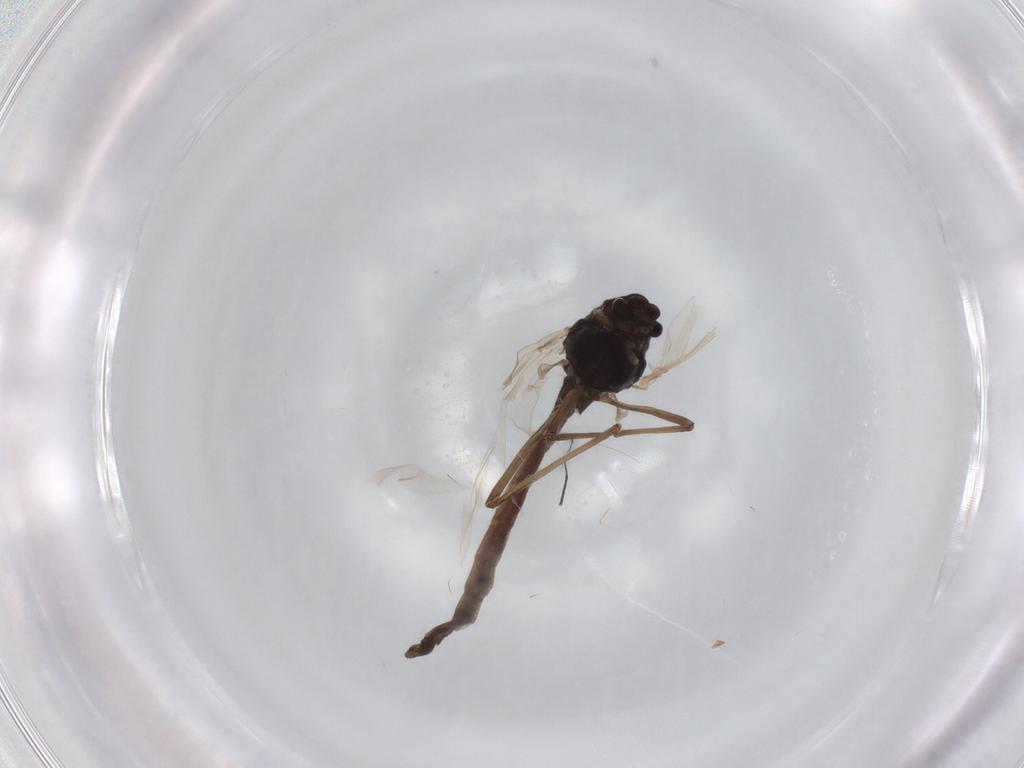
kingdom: Animalia
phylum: Arthropoda
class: Insecta
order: Diptera
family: Chironomidae
